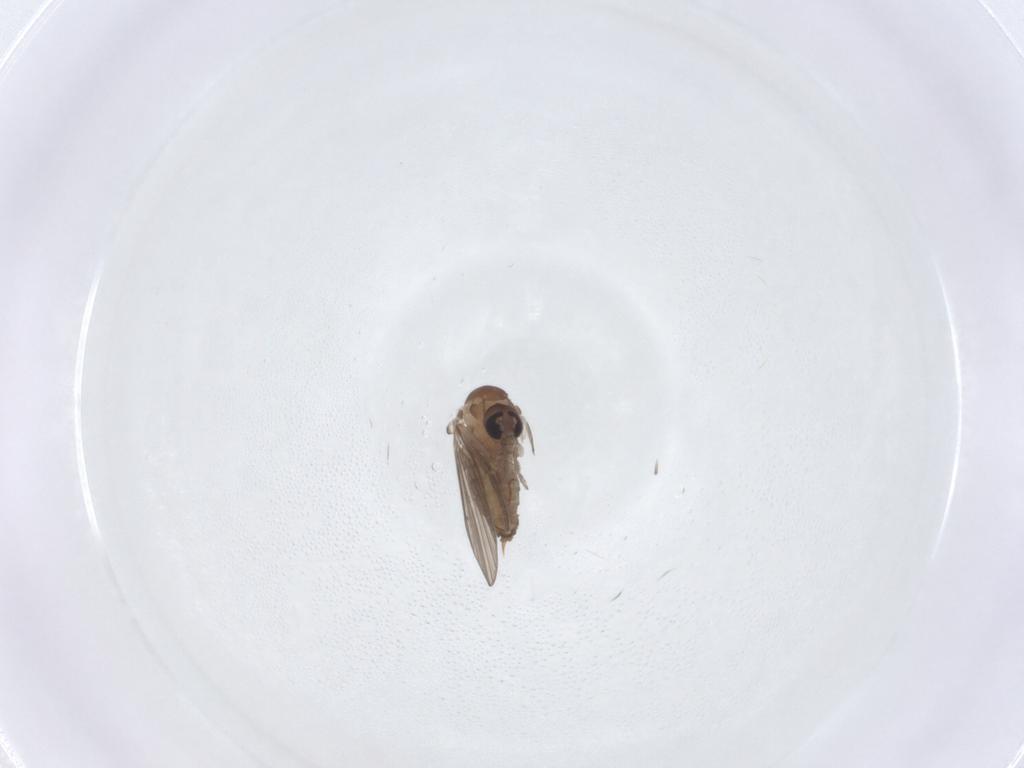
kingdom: Animalia
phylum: Arthropoda
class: Insecta
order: Diptera
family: Psychodidae
